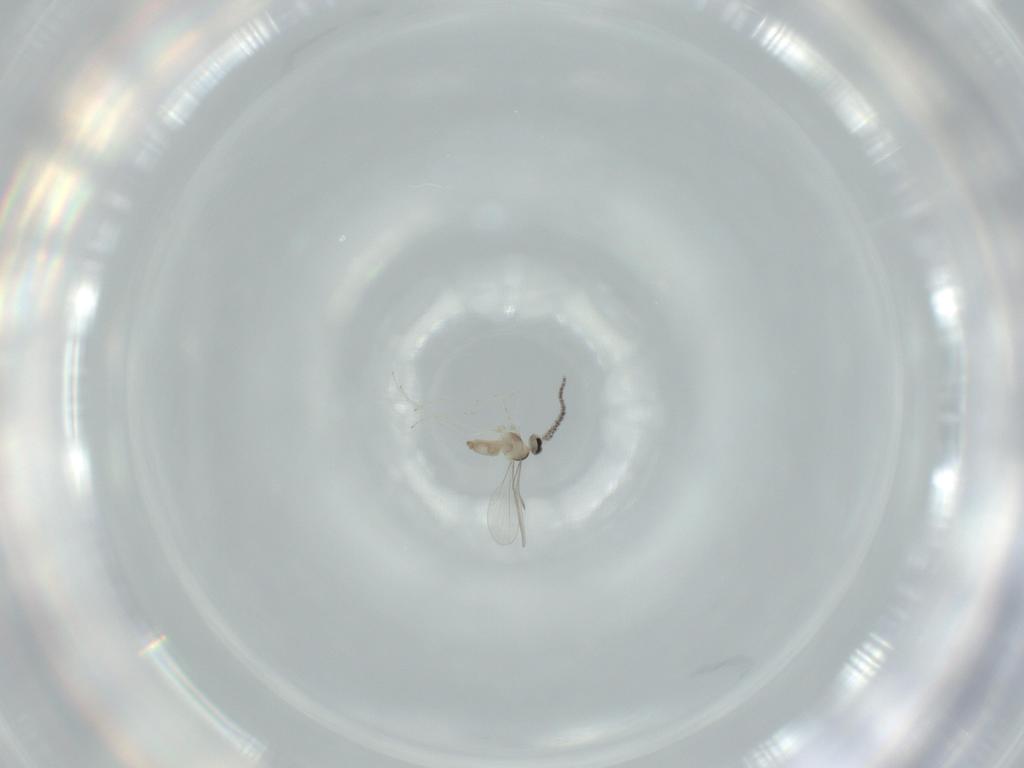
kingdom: Animalia
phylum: Arthropoda
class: Insecta
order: Diptera
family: Cecidomyiidae
